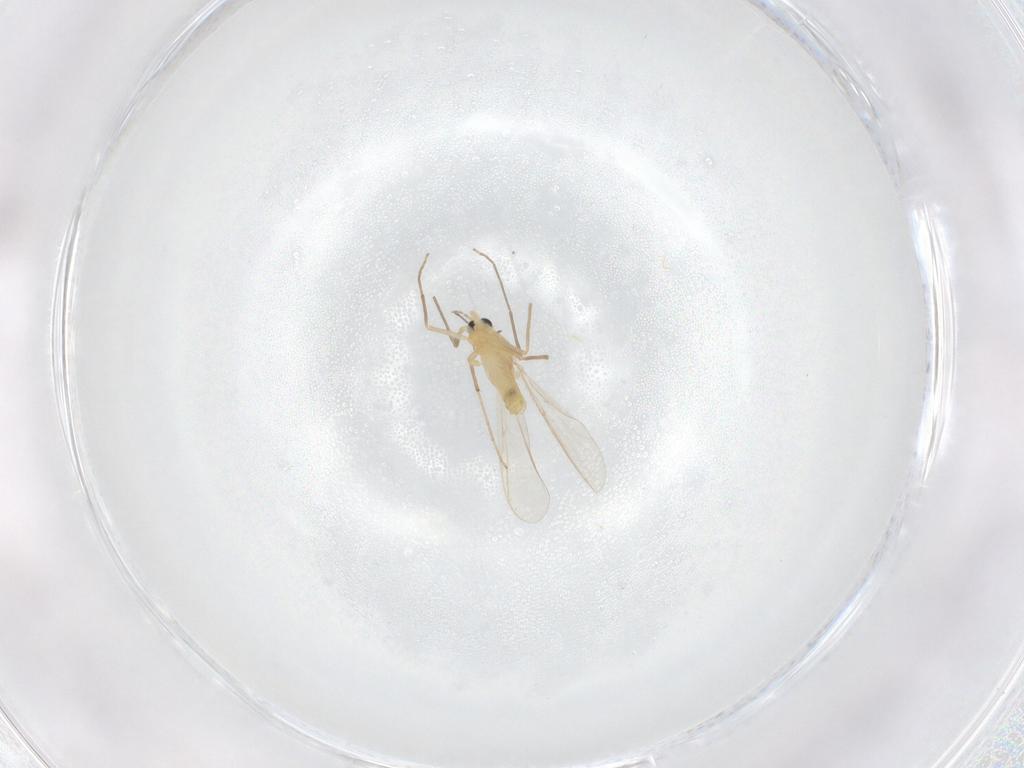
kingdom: Animalia
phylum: Arthropoda
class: Insecta
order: Diptera
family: Chironomidae
